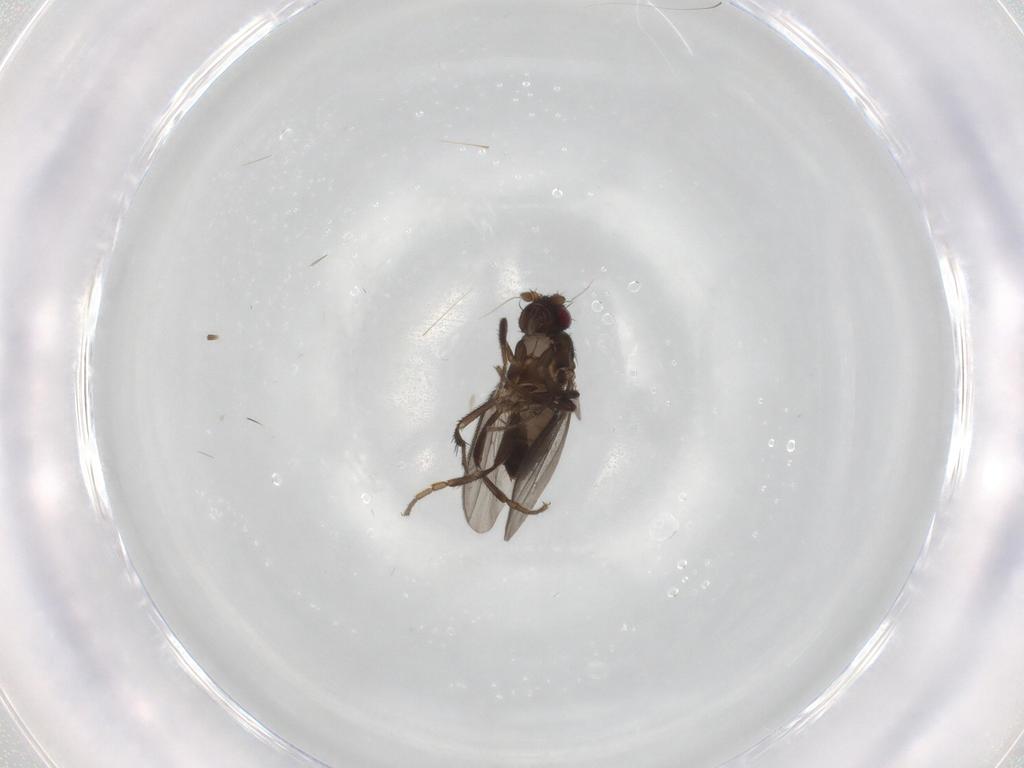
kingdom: Animalia
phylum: Arthropoda
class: Insecta
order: Diptera
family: Sphaeroceridae
